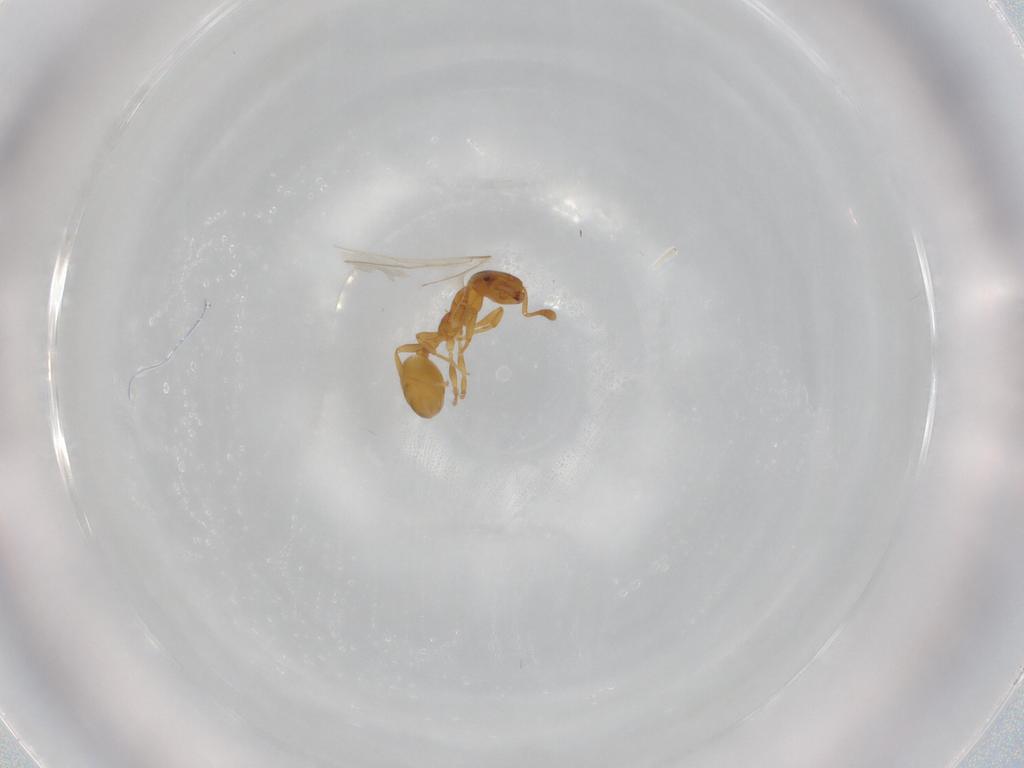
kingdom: Animalia
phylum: Arthropoda
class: Insecta
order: Hymenoptera
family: Formicidae
